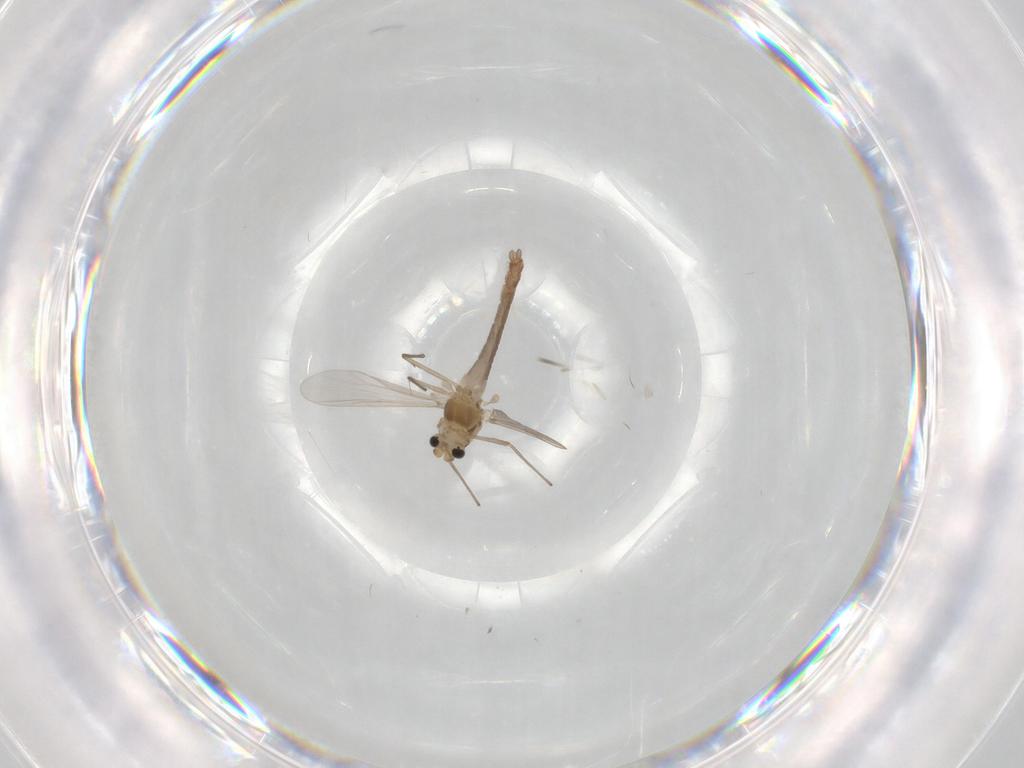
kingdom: Animalia
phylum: Arthropoda
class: Insecta
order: Diptera
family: Chironomidae
